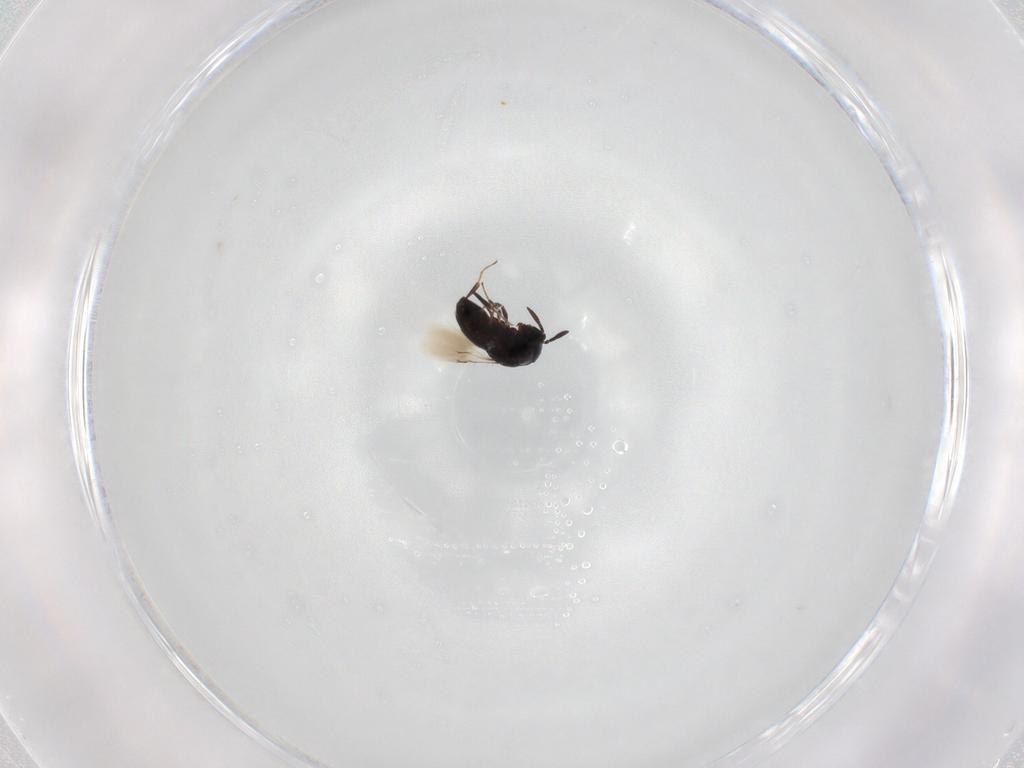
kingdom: Animalia
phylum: Arthropoda
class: Insecta
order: Hymenoptera
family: Scelionidae
